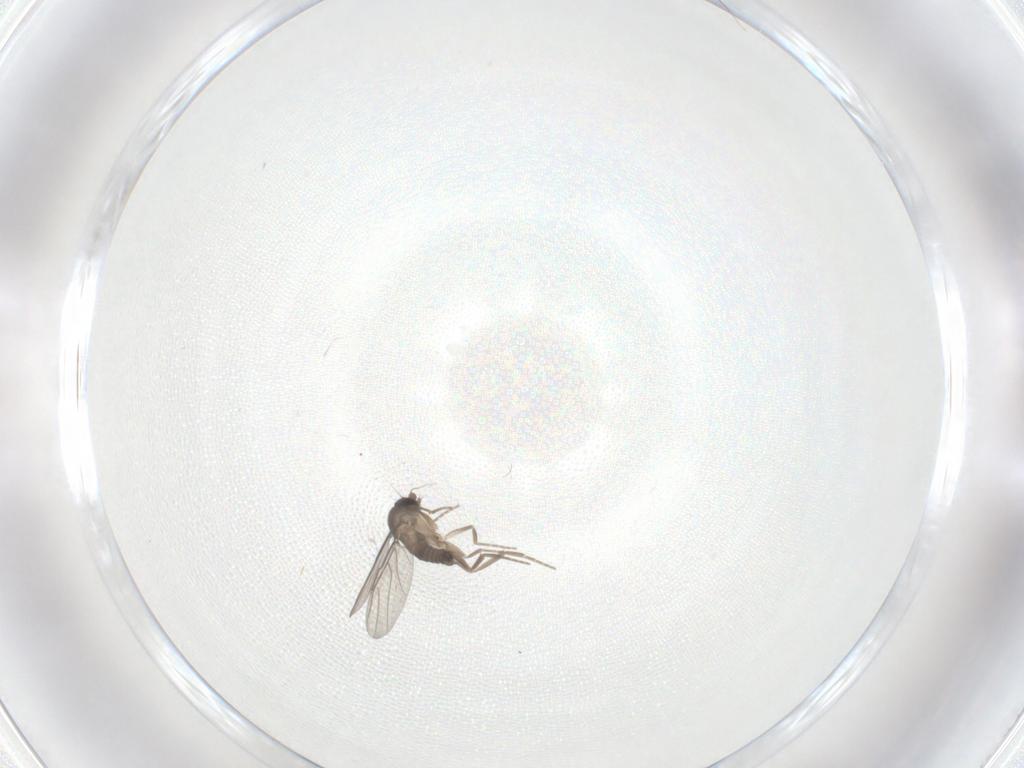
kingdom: Animalia
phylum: Arthropoda
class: Insecta
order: Diptera
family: Phoridae
